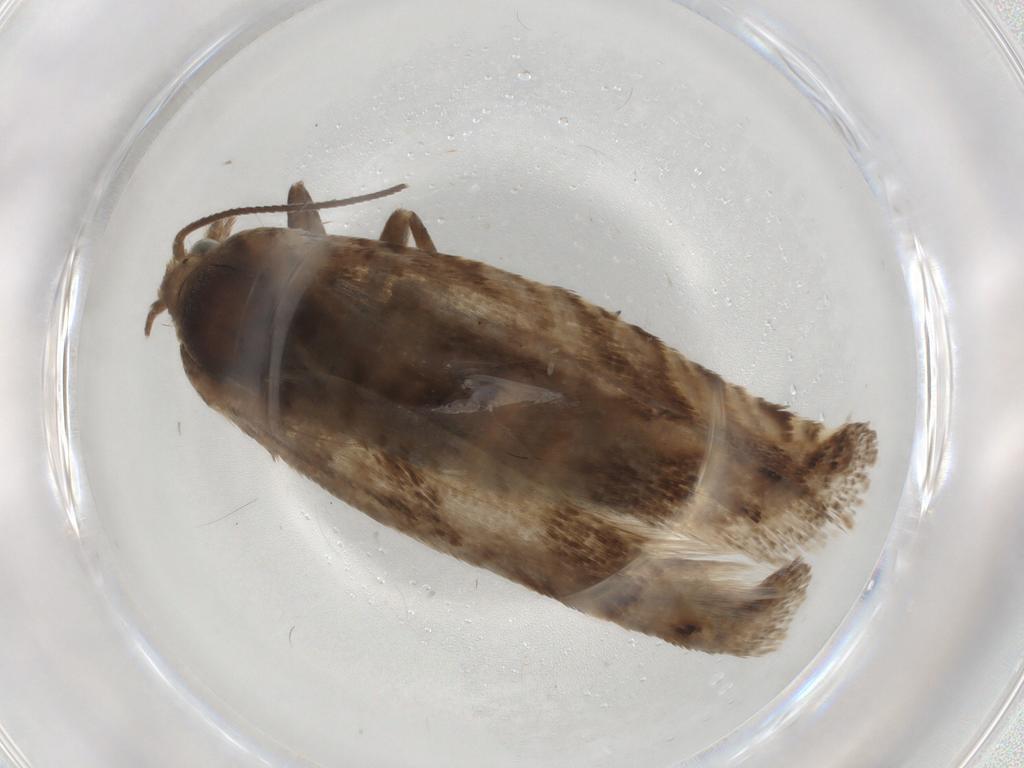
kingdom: Animalia
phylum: Arthropoda
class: Insecta
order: Lepidoptera
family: Tortricidae
